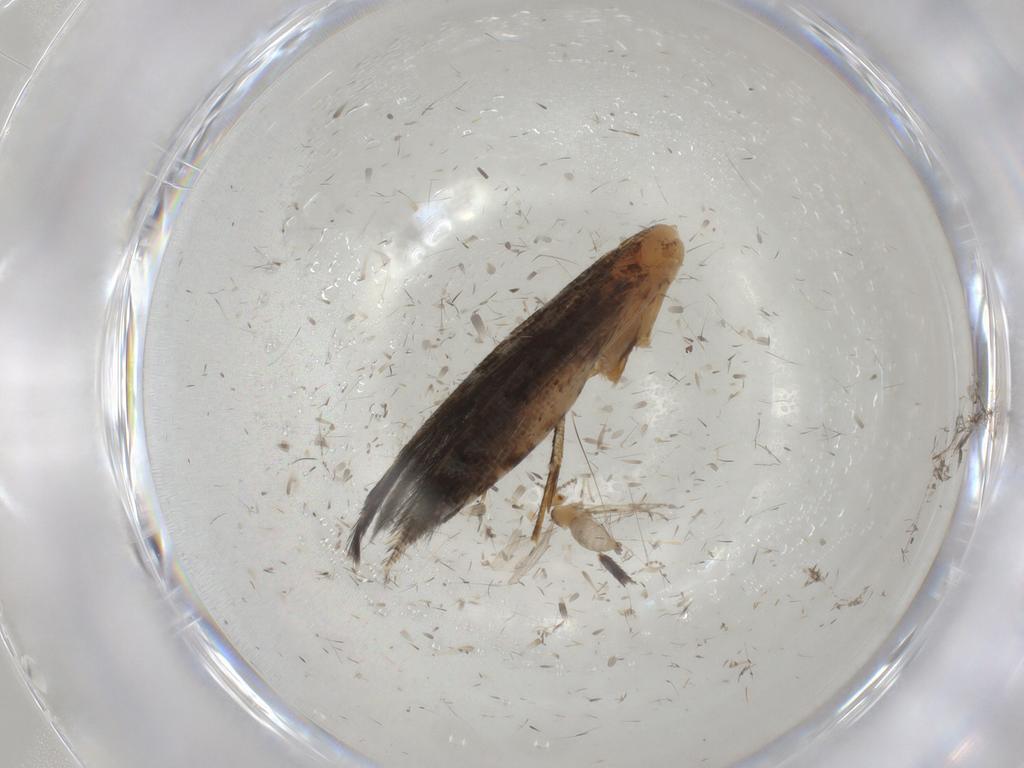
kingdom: Animalia
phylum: Arthropoda
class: Insecta
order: Lepidoptera
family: Cosmopterigidae
